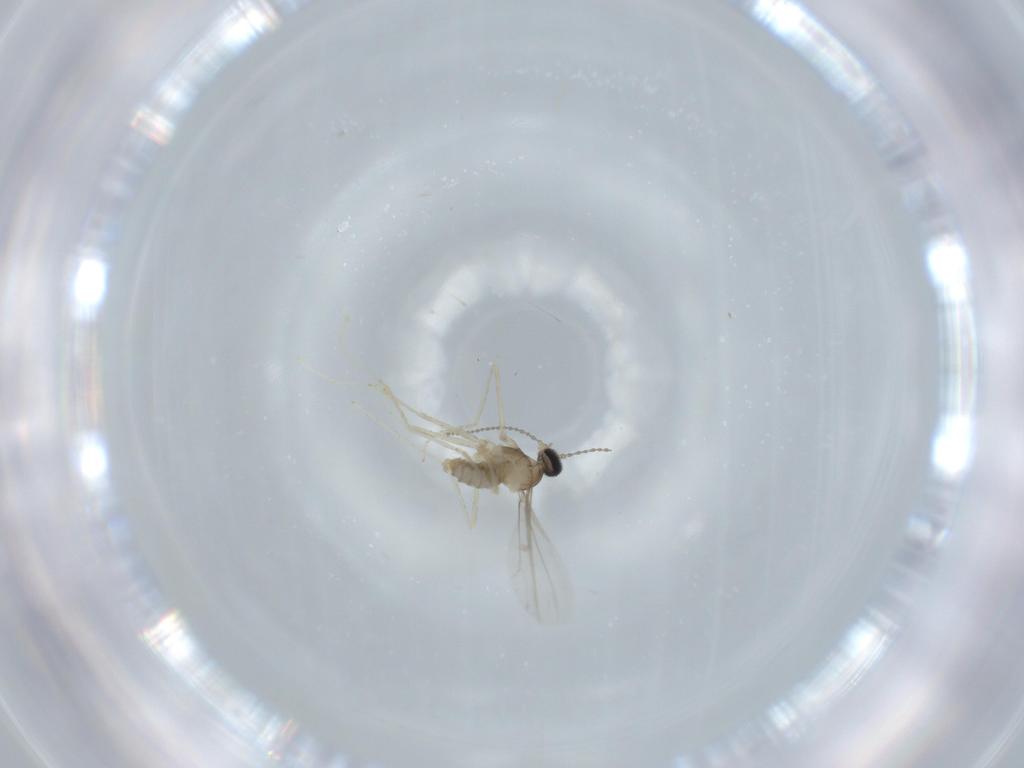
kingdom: Animalia
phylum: Arthropoda
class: Insecta
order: Diptera
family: Cecidomyiidae
